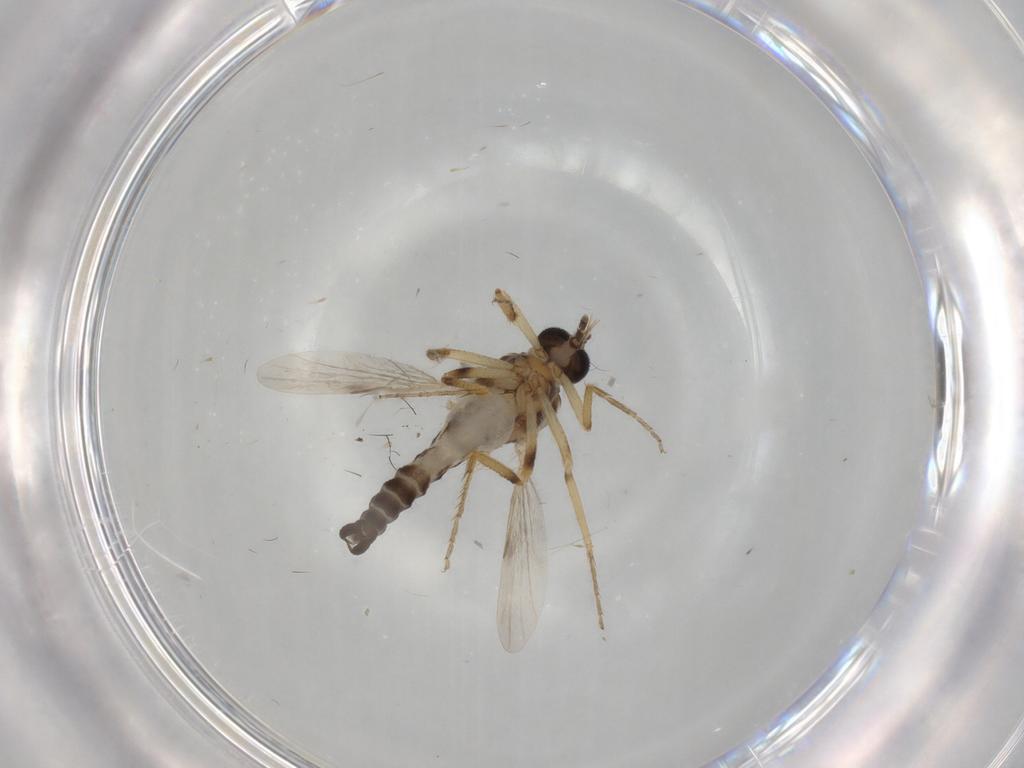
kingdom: Animalia
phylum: Arthropoda
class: Insecta
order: Diptera
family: Ceratopogonidae
